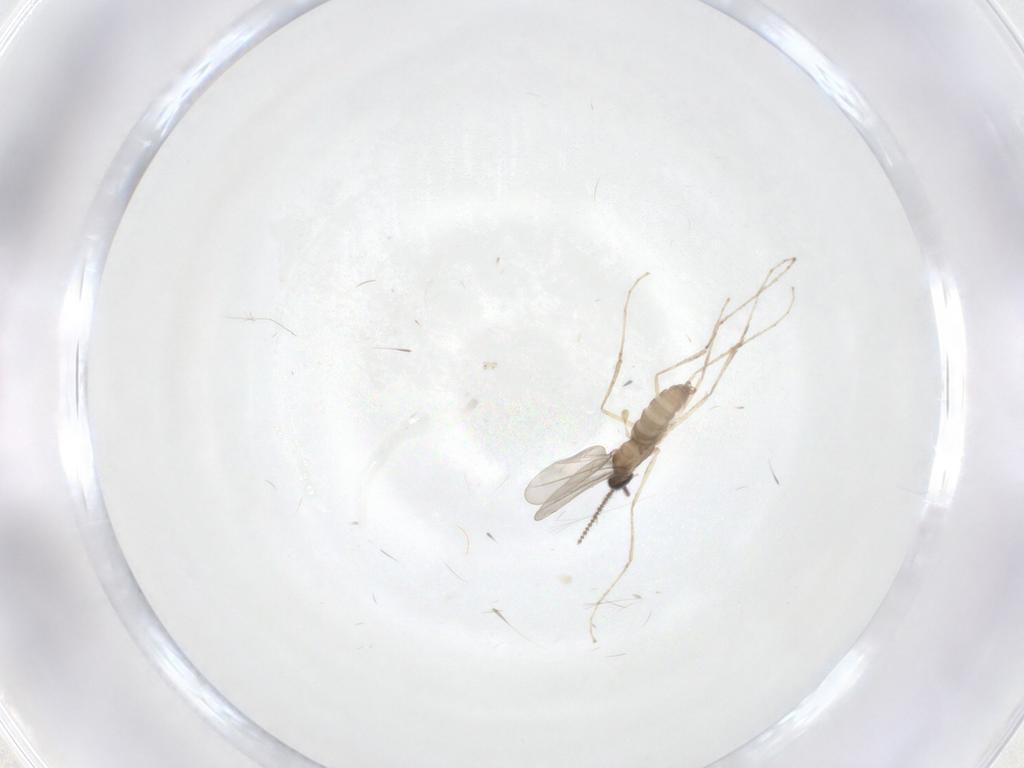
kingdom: Animalia
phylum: Arthropoda
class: Insecta
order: Diptera
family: Cecidomyiidae
